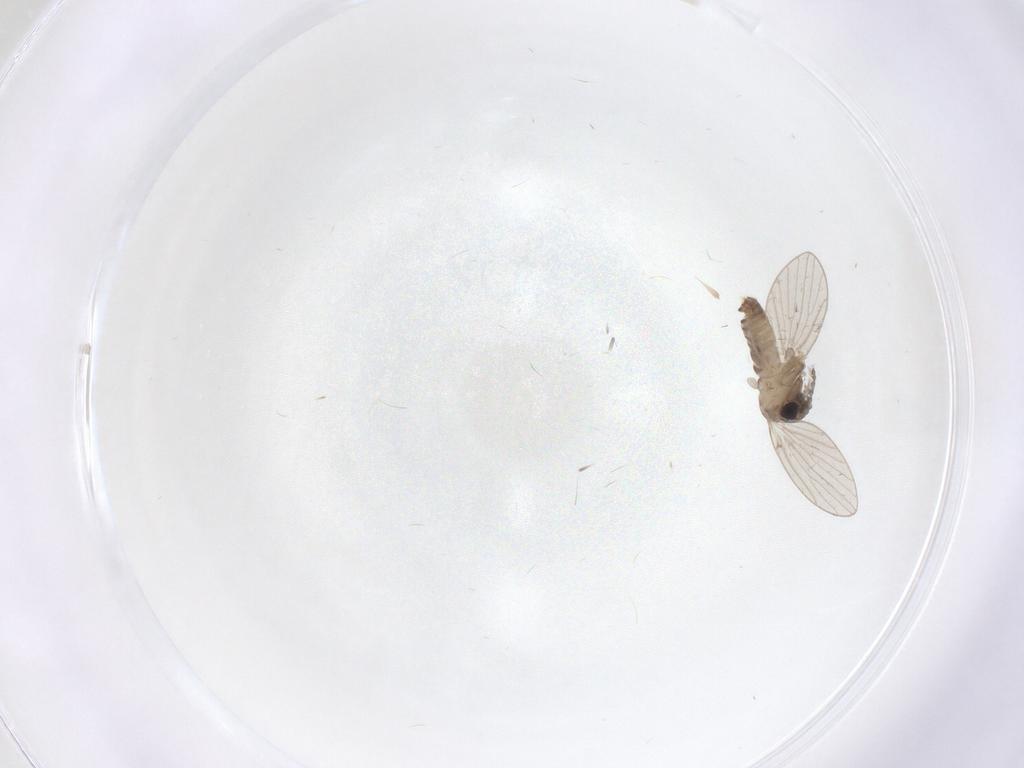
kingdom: Animalia
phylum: Arthropoda
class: Insecta
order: Diptera
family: Psychodidae
